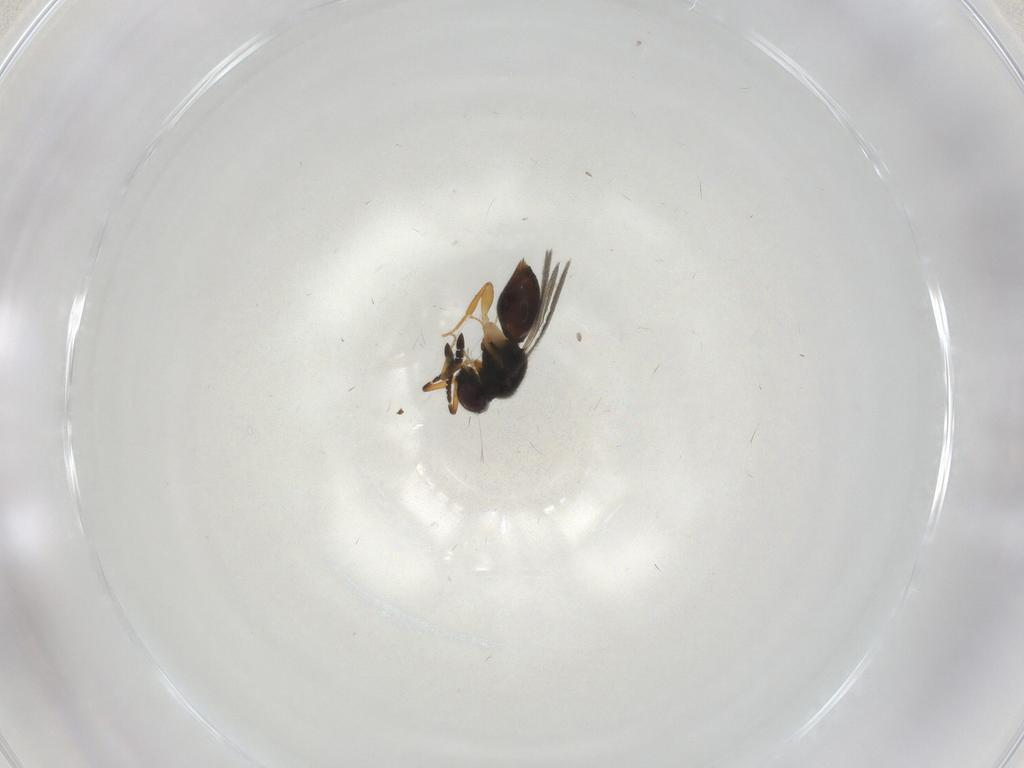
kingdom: Animalia
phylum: Arthropoda
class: Insecta
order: Hymenoptera
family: Ceraphronidae
